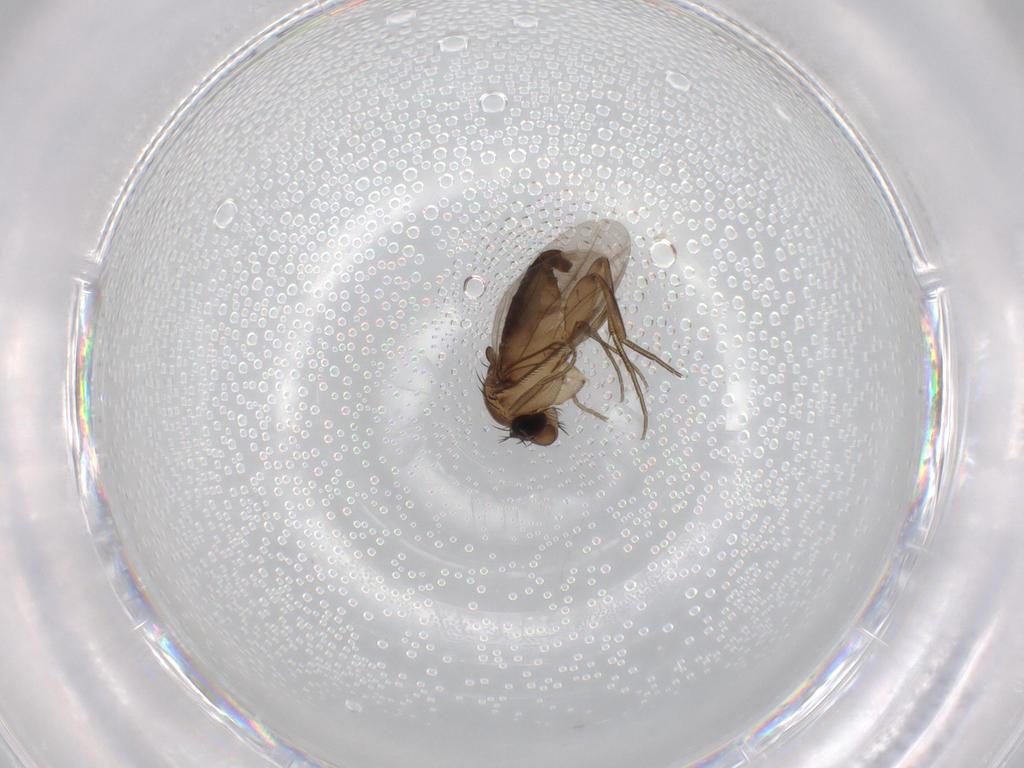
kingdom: Animalia
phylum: Arthropoda
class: Insecta
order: Diptera
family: Phoridae
